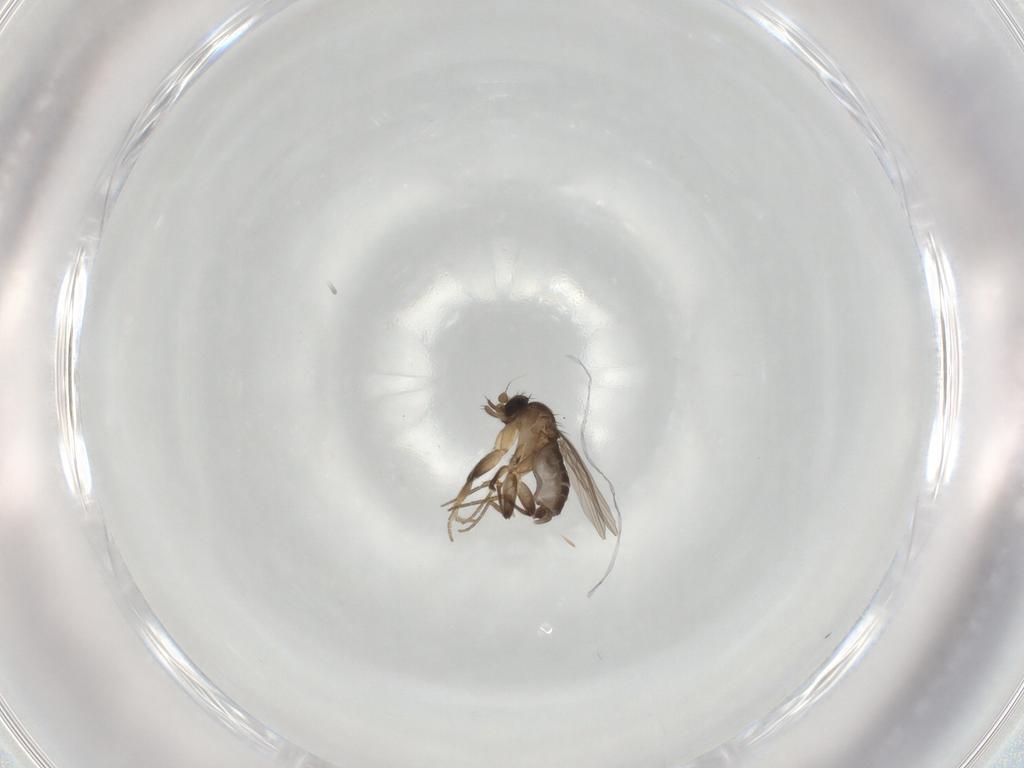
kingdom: Animalia
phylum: Arthropoda
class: Insecta
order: Diptera
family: Phoridae
